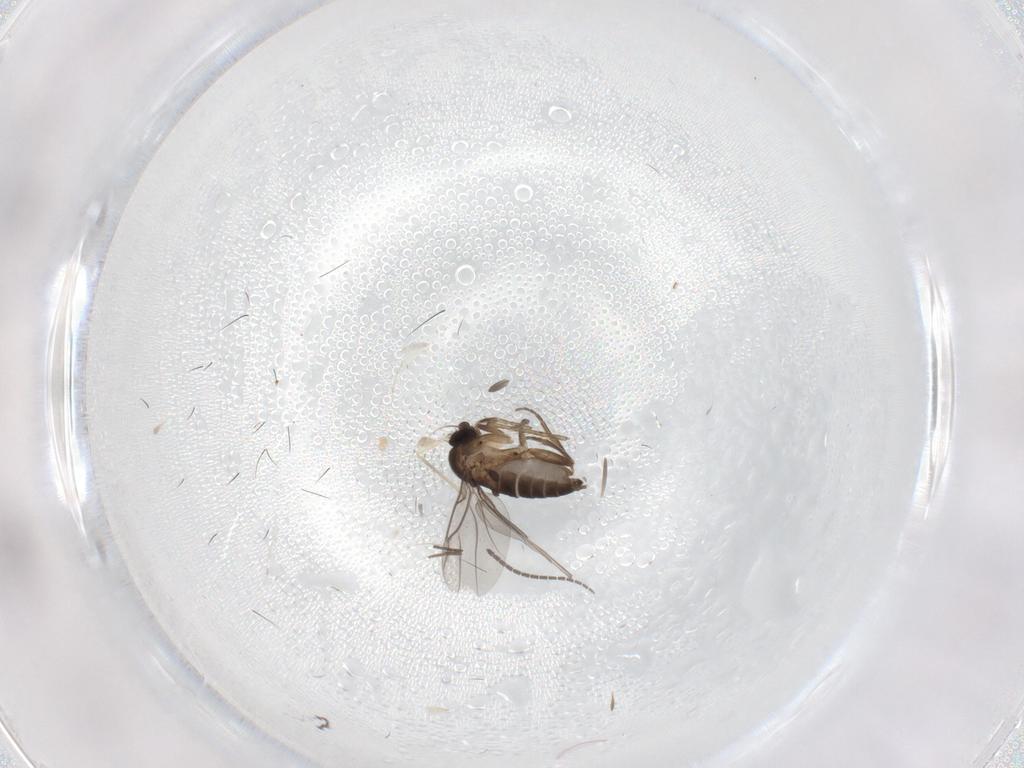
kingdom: Animalia
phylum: Arthropoda
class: Insecta
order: Diptera
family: Sciaridae
